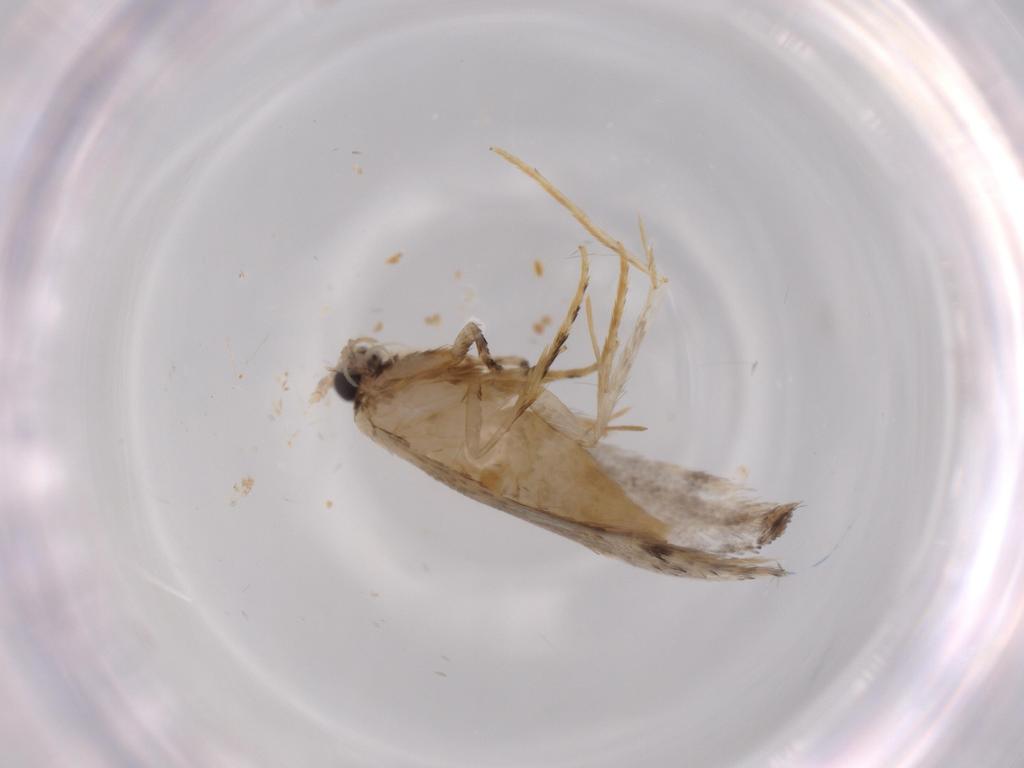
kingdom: Animalia
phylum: Arthropoda
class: Insecta
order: Lepidoptera
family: Tineidae
